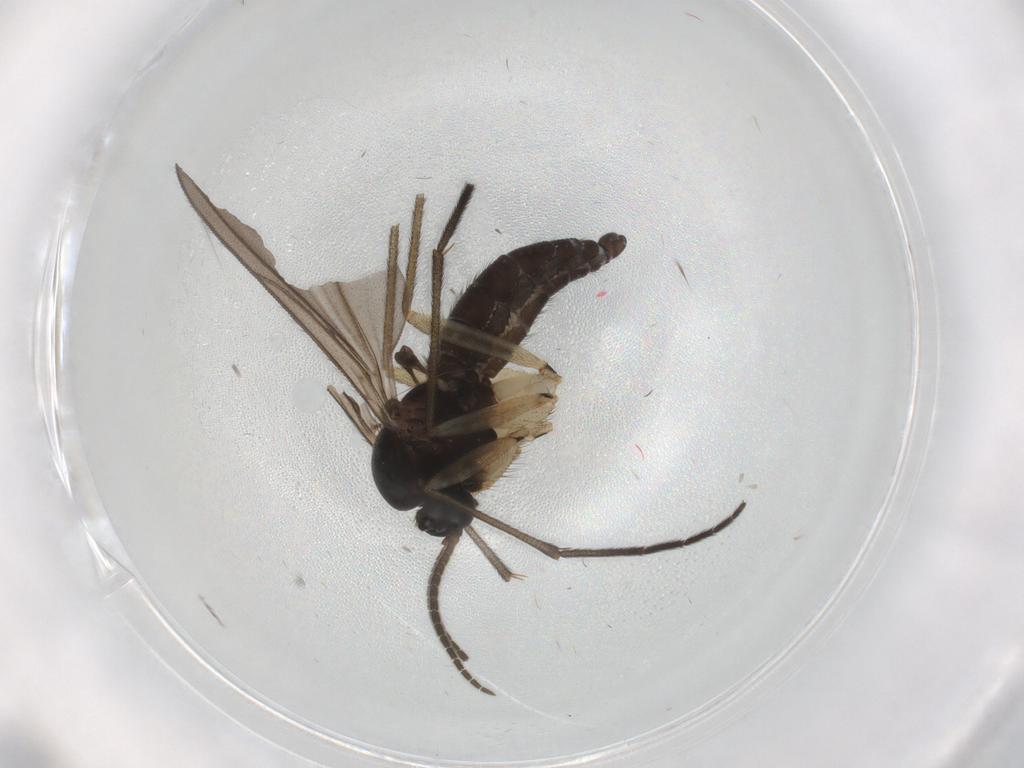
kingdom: Animalia
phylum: Arthropoda
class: Insecta
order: Diptera
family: Sciaridae
